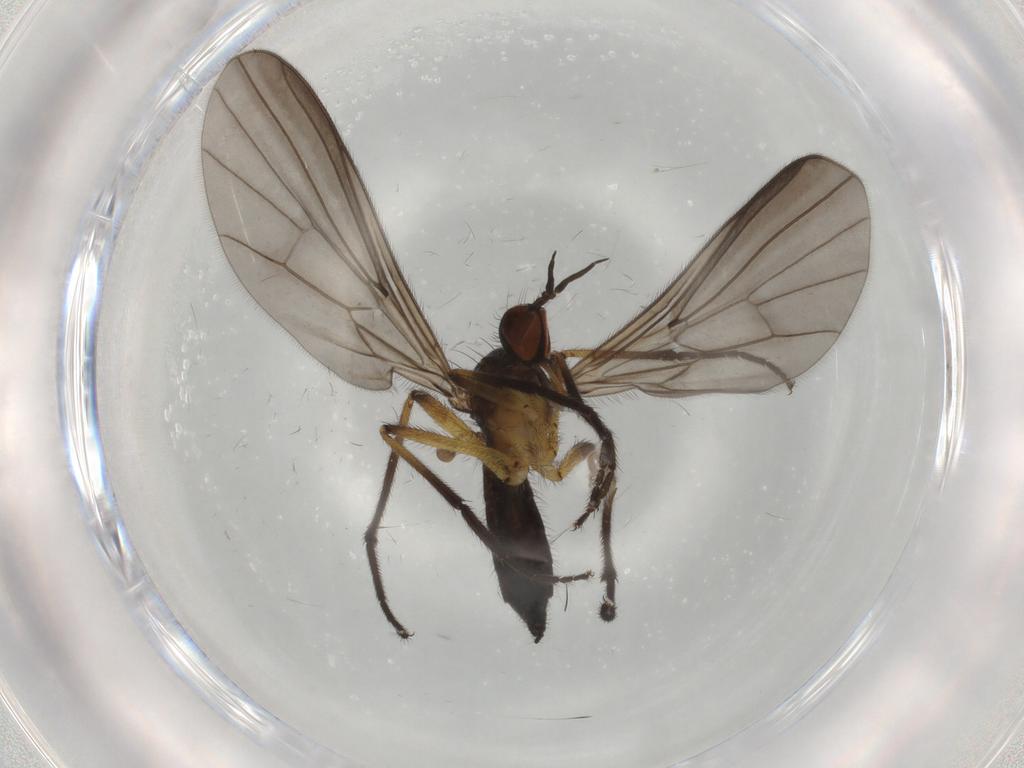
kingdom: Animalia
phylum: Arthropoda
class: Insecta
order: Diptera
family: Empididae
